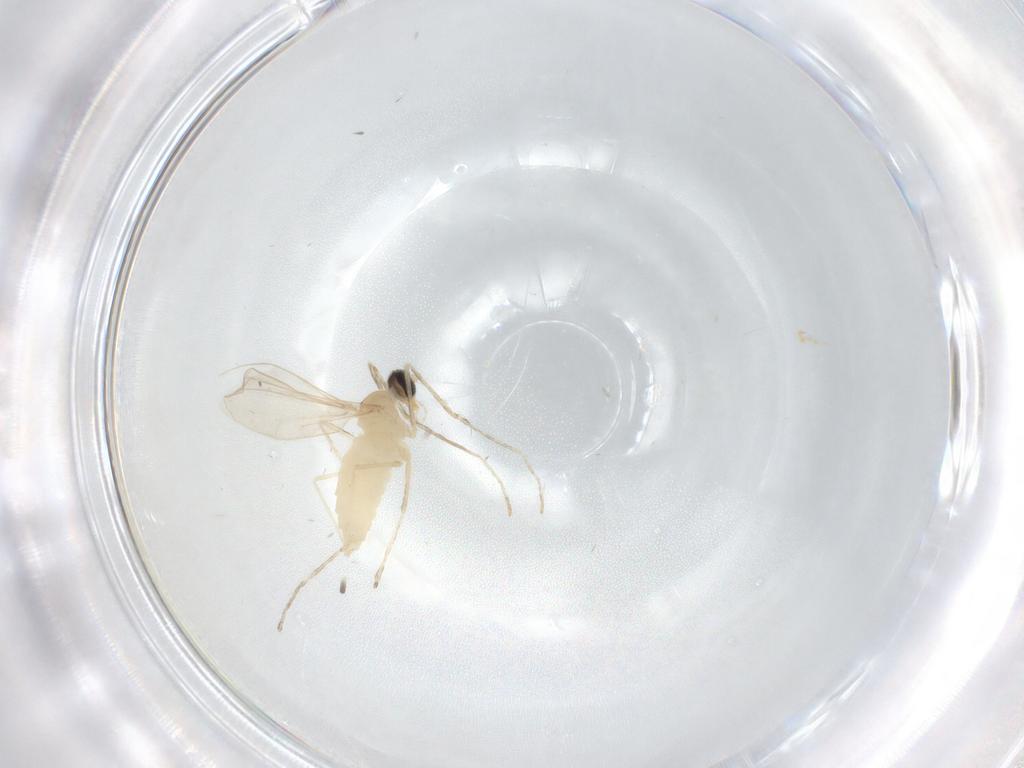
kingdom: Animalia
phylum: Arthropoda
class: Insecta
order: Diptera
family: Cecidomyiidae
